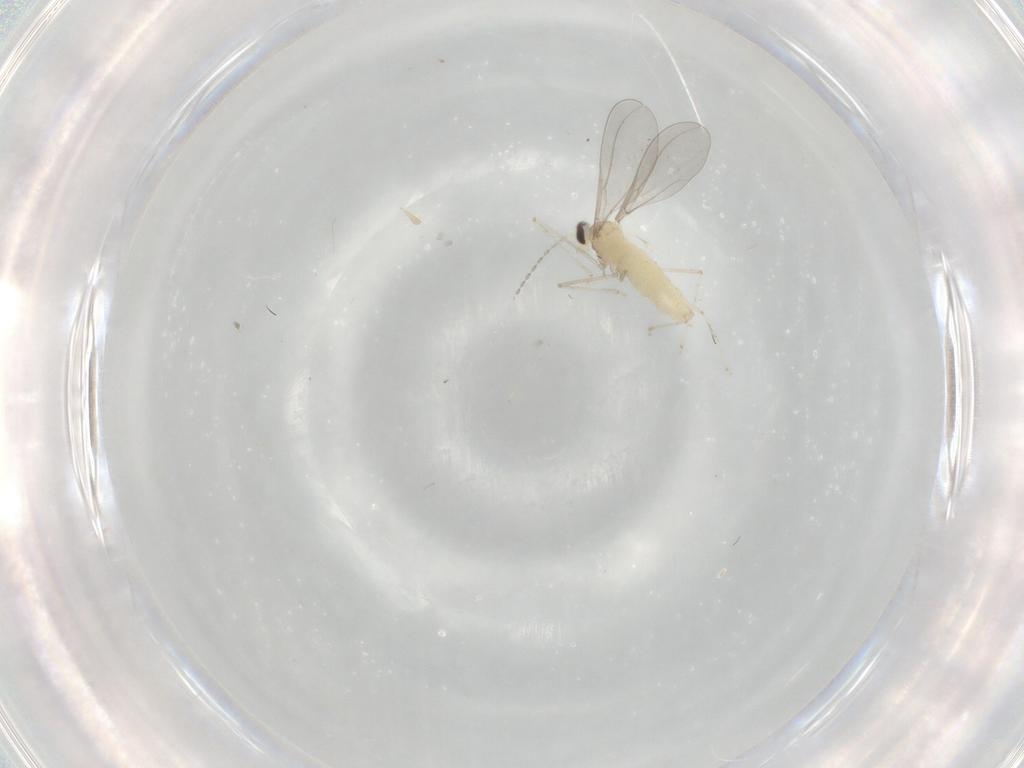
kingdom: Animalia
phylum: Arthropoda
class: Insecta
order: Diptera
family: Cecidomyiidae
